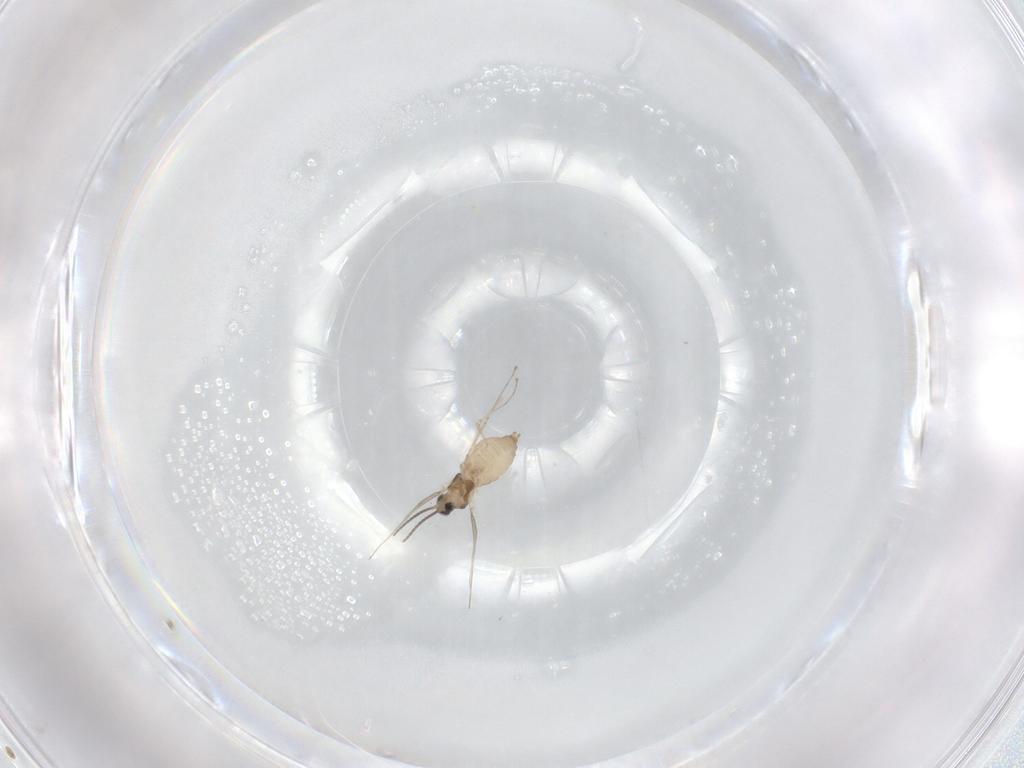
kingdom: Animalia
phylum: Arthropoda
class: Insecta
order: Diptera
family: Cecidomyiidae
